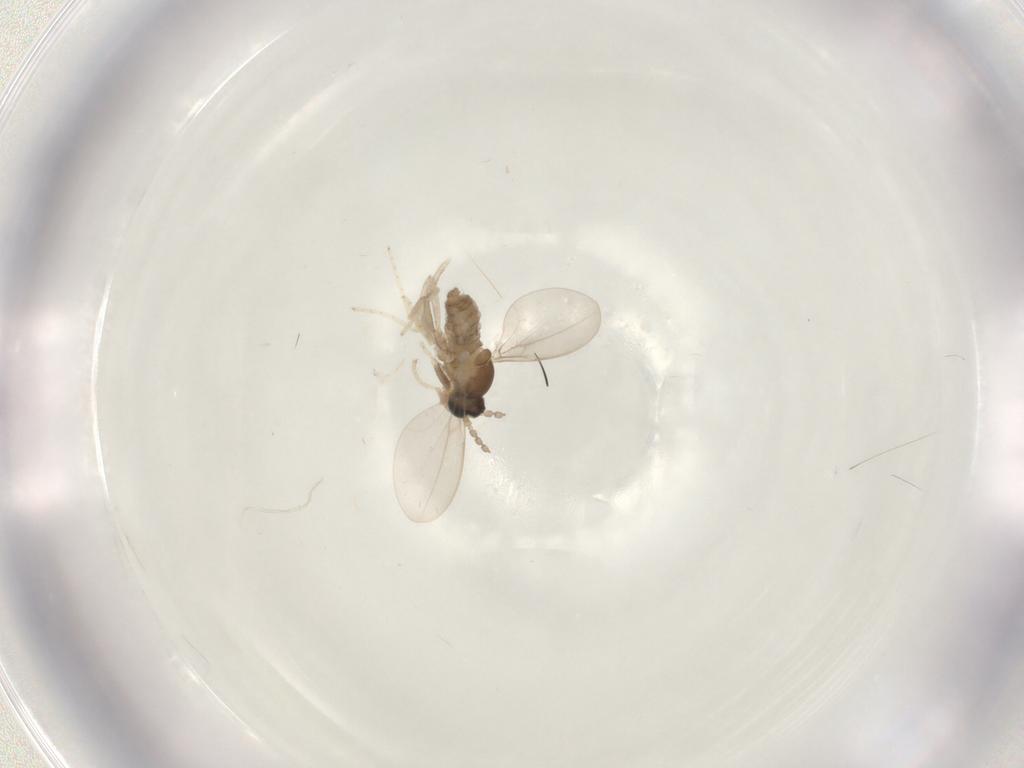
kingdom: Animalia
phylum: Arthropoda
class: Insecta
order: Diptera
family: Cecidomyiidae
